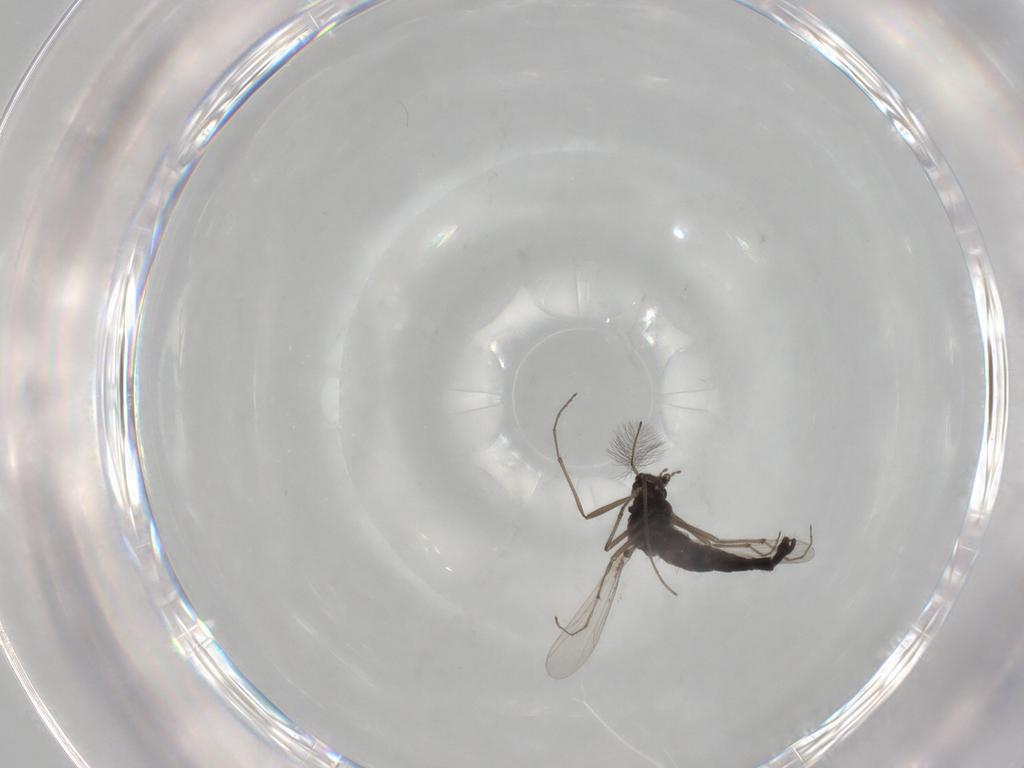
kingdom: Animalia
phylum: Arthropoda
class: Insecta
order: Diptera
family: Chironomidae
